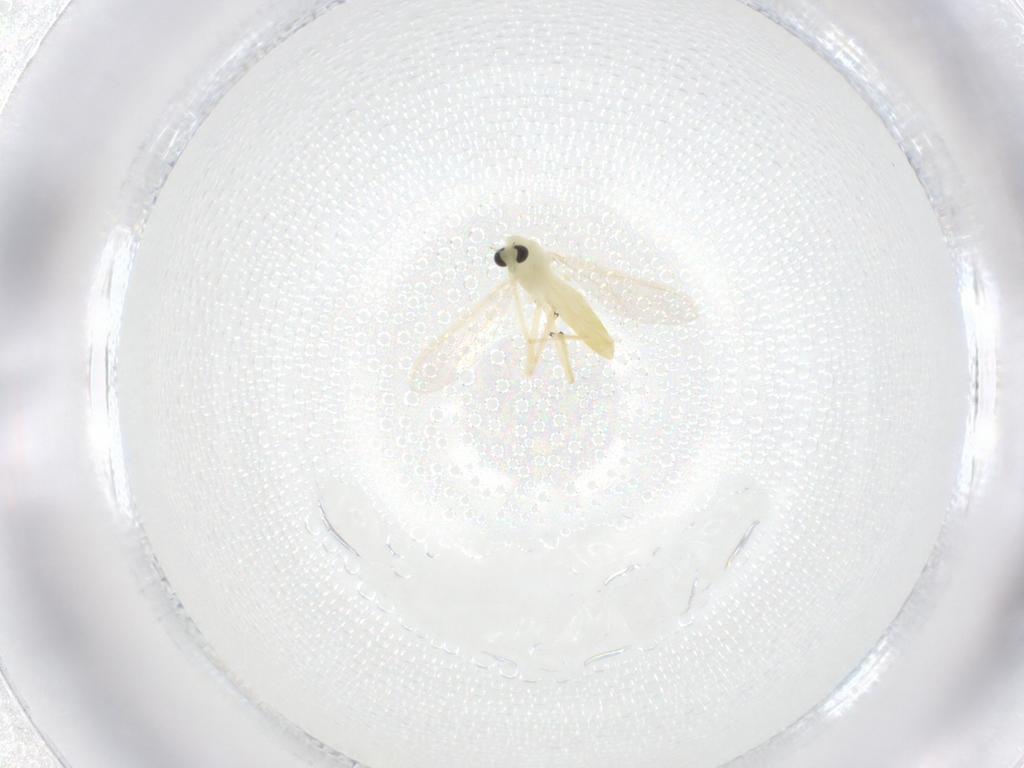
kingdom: Animalia
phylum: Arthropoda
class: Insecta
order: Diptera
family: Chironomidae
